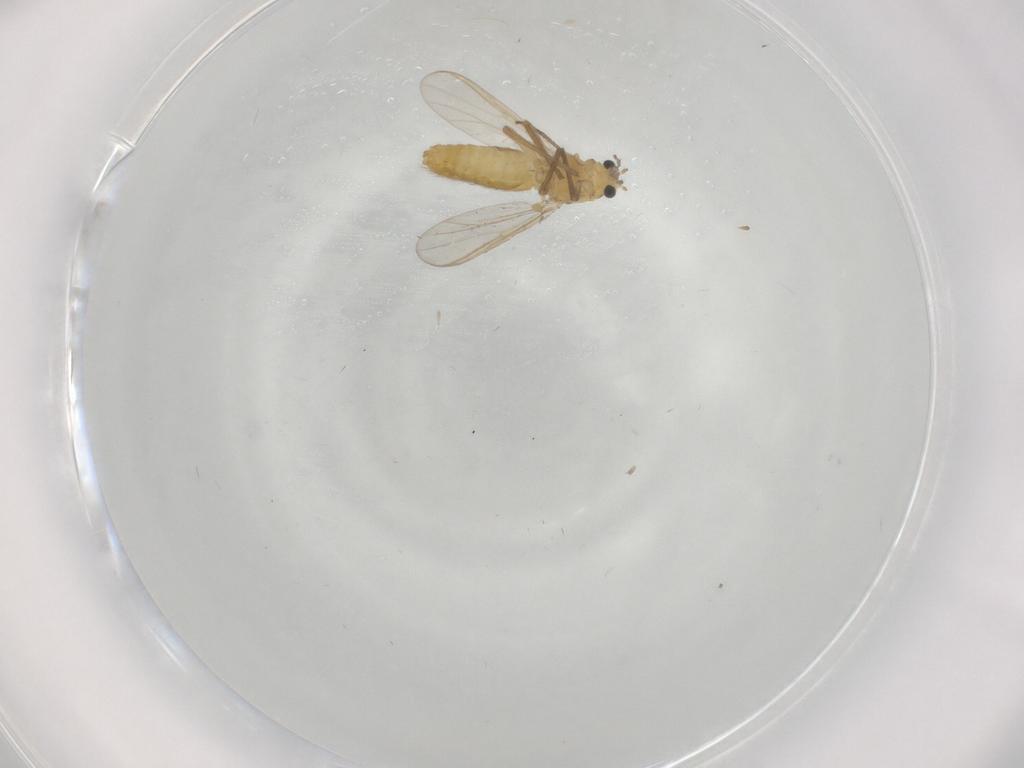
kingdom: Animalia
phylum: Arthropoda
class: Insecta
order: Diptera
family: Chironomidae
